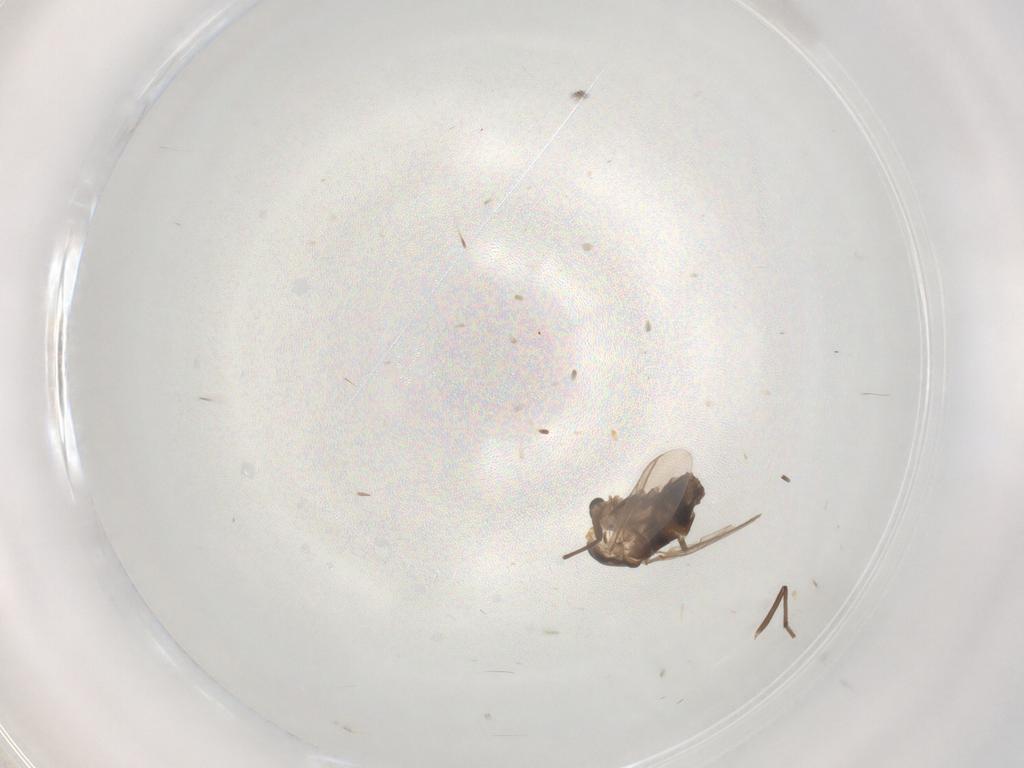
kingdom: Animalia
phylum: Arthropoda
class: Insecta
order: Diptera
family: Chironomidae
